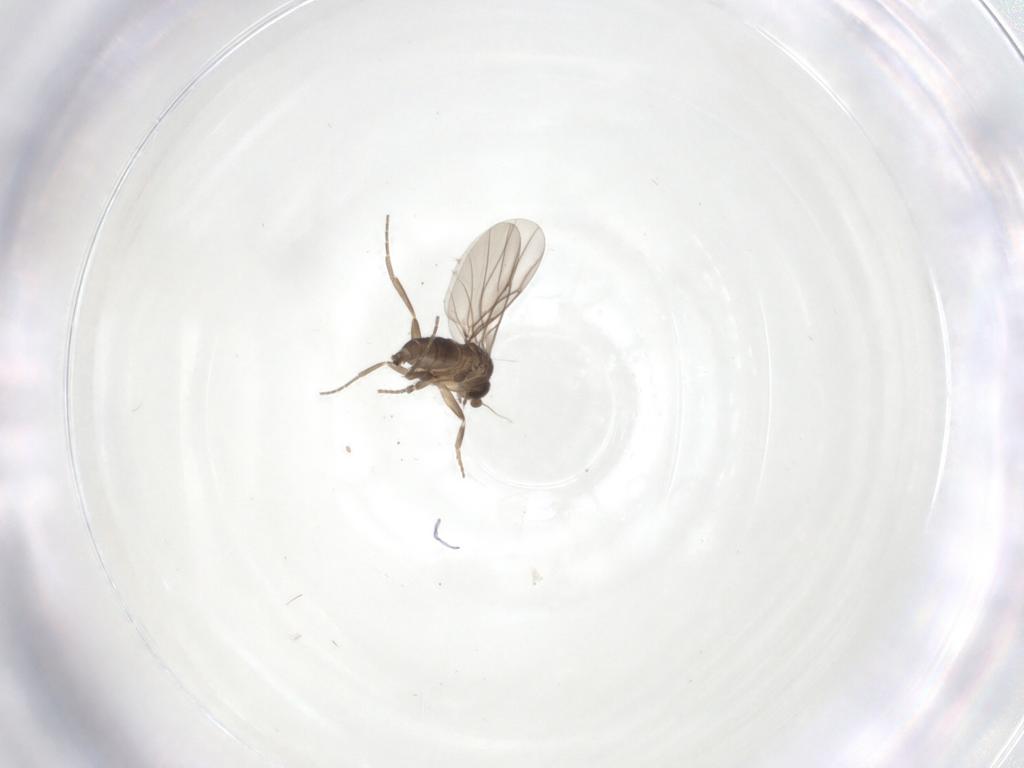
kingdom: Animalia
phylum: Arthropoda
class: Insecta
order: Diptera
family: Phoridae
